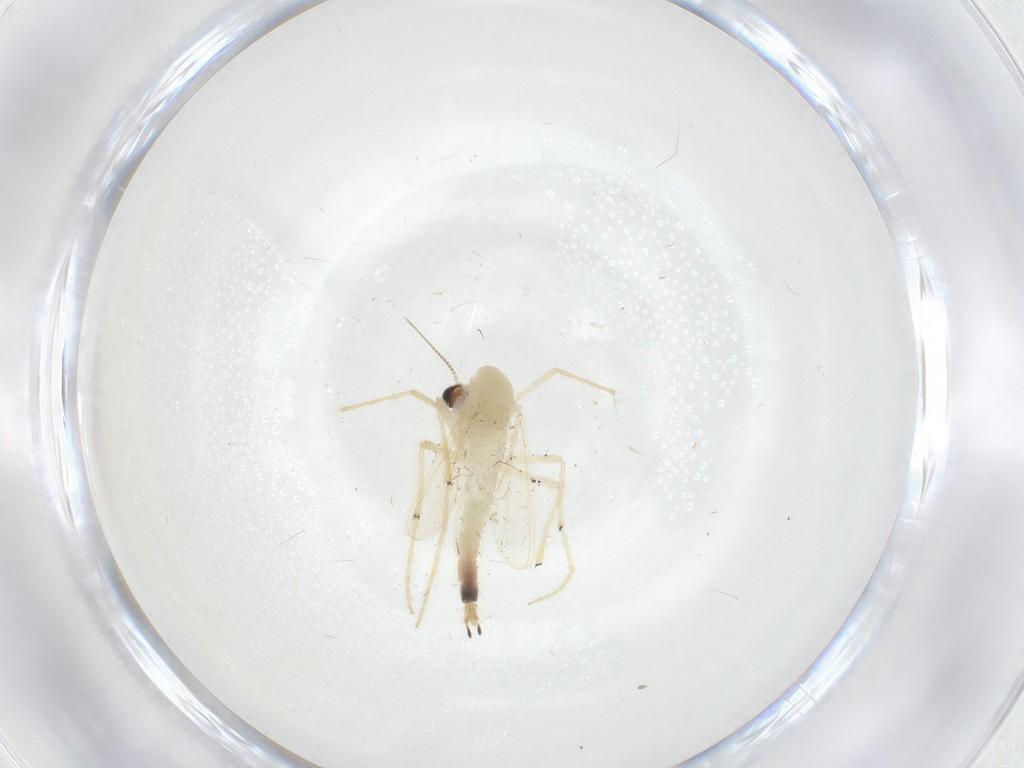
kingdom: Animalia
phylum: Arthropoda
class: Insecta
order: Diptera
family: Chironomidae
